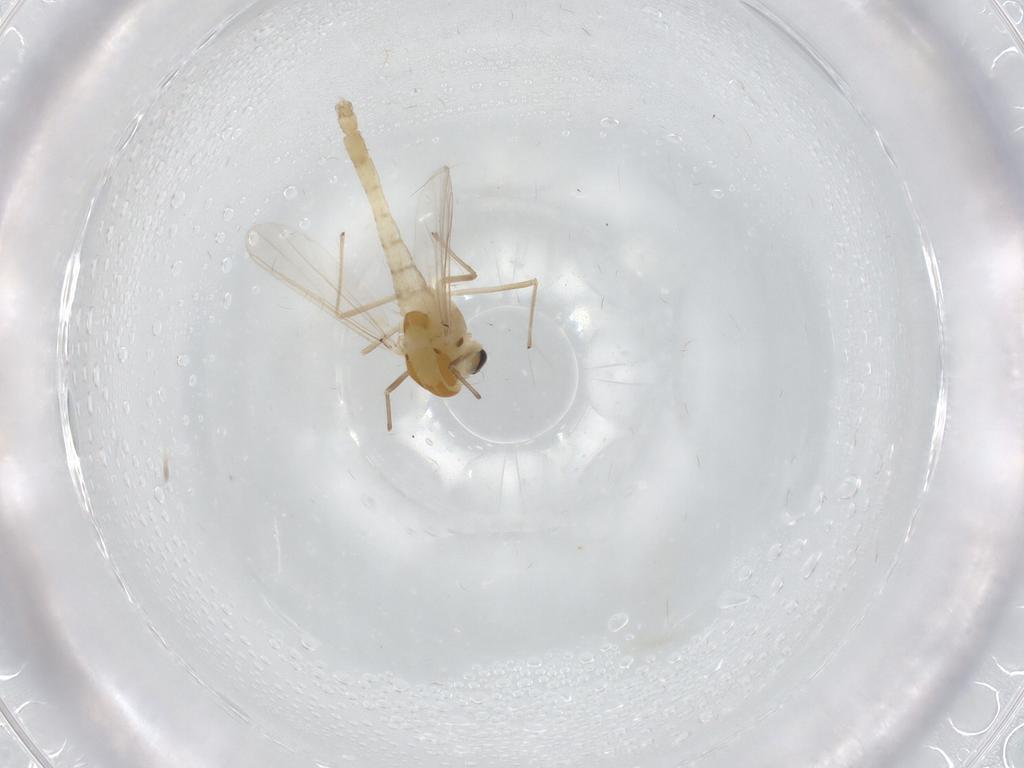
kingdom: Animalia
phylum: Arthropoda
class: Insecta
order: Diptera
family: Chironomidae
